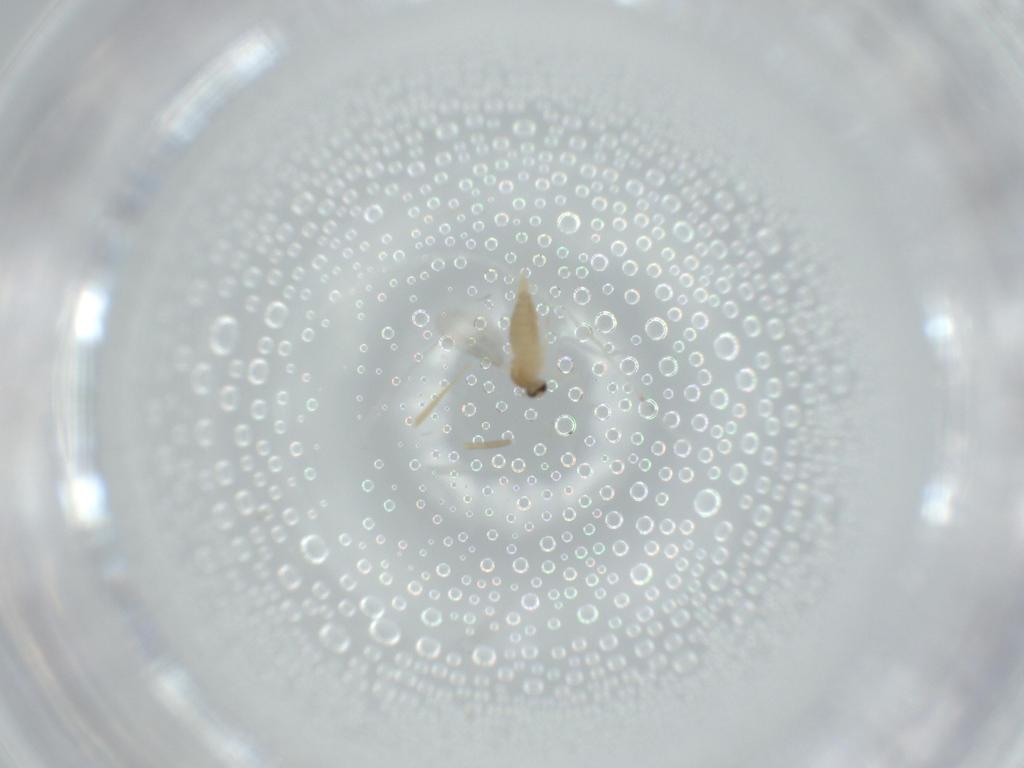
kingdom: Animalia
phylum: Arthropoda
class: Insecta
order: Diptera
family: Cecidomyiidae
